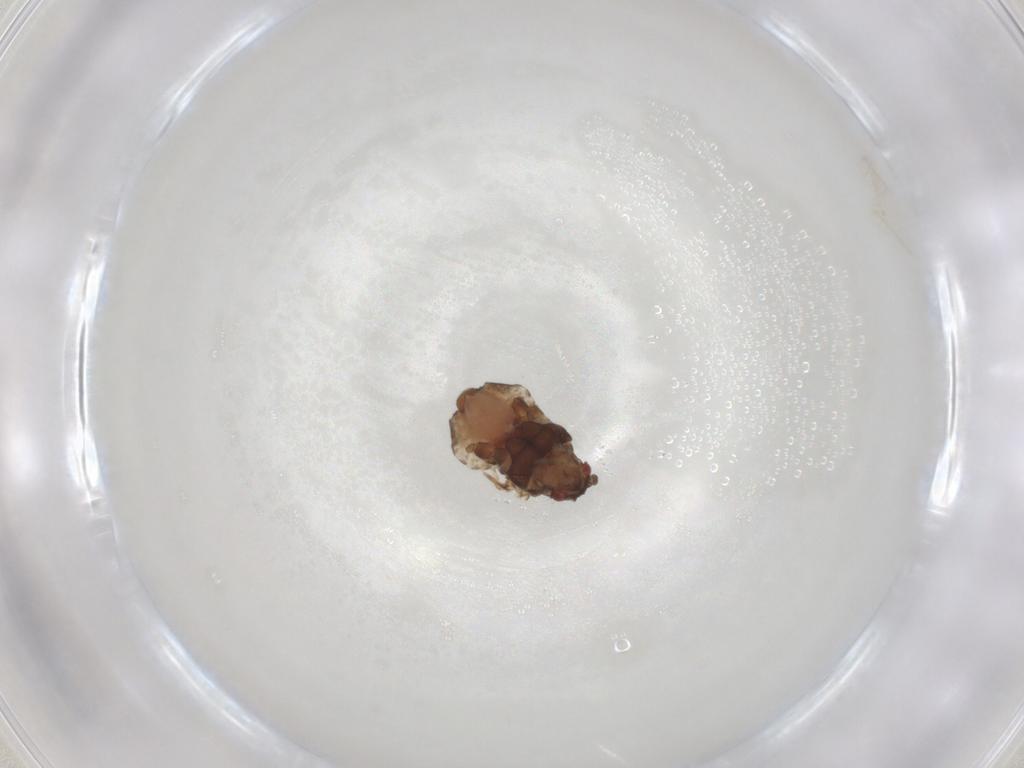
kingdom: Animalia
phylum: Arthropoda
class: Insecta
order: Hemiptera
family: Aphididae
